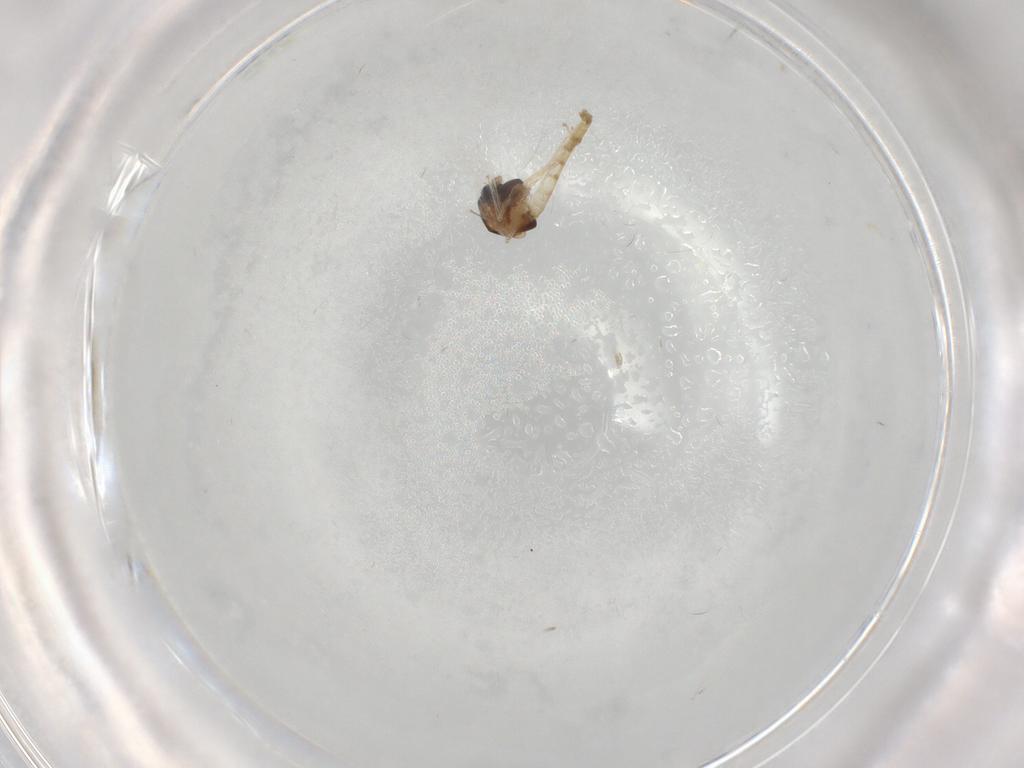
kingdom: Animalia
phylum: Arthropoda
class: Insecta
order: Diptera
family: Chironomidae
